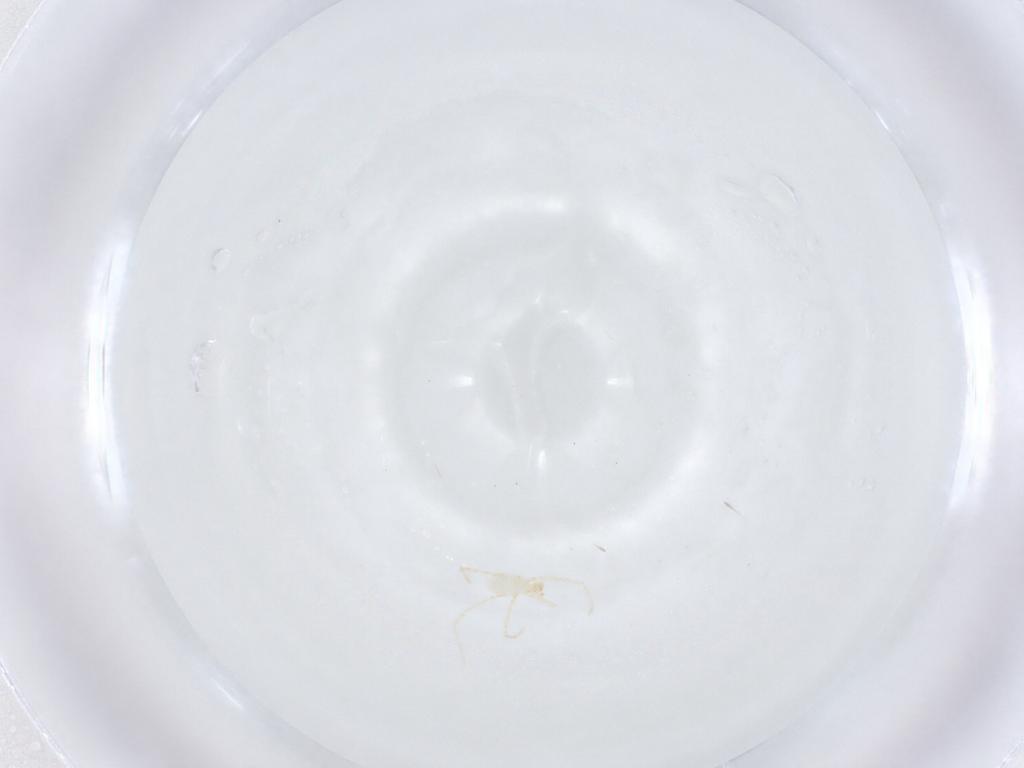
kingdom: Animalia
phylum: Arthropoda
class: Arachnida
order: Trombidiformes
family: Erythraeidae
